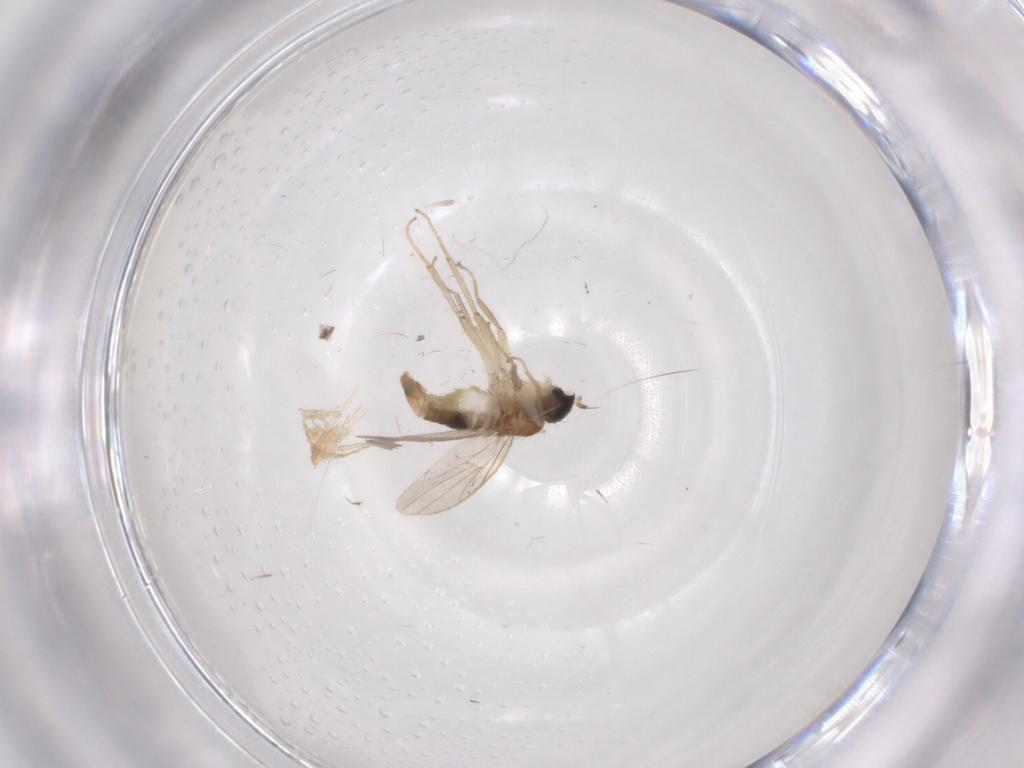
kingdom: Animalia
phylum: Arthropoda
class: Insecta
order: Diptera
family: Hybotidae
